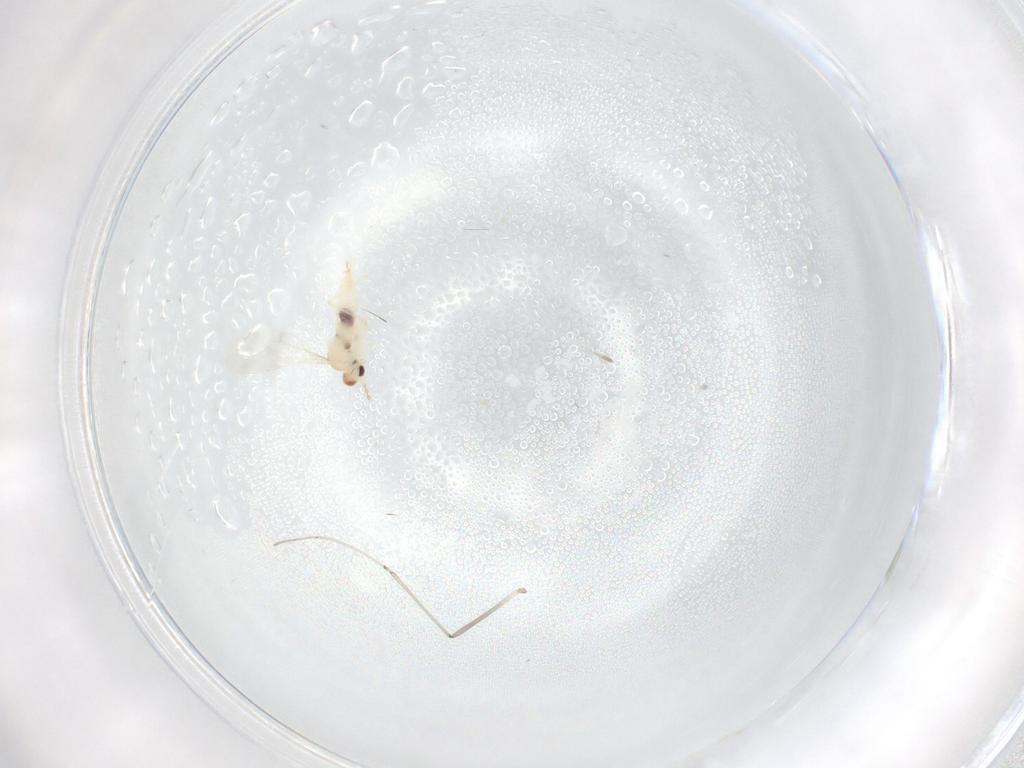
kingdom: Animalia
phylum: Arthropoda
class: Insecta
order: Diptera
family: Cecidomyiidae
